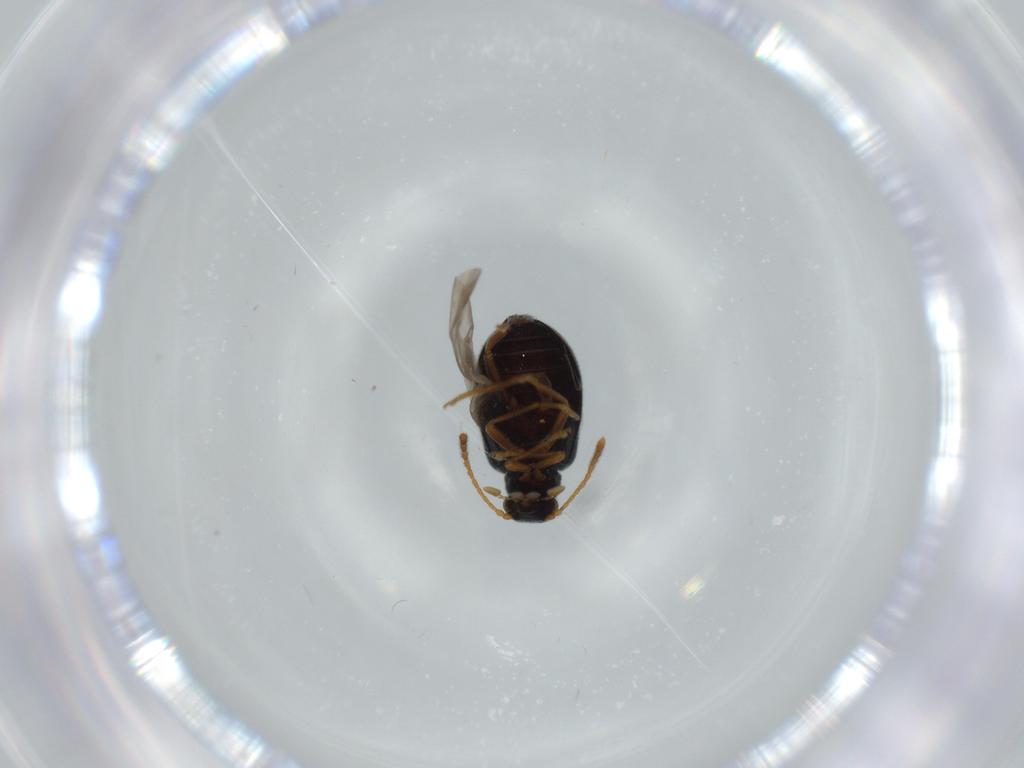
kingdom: Animalia
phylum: Arthropoda
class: Insecta
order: Coleoptera
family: Aderidae
